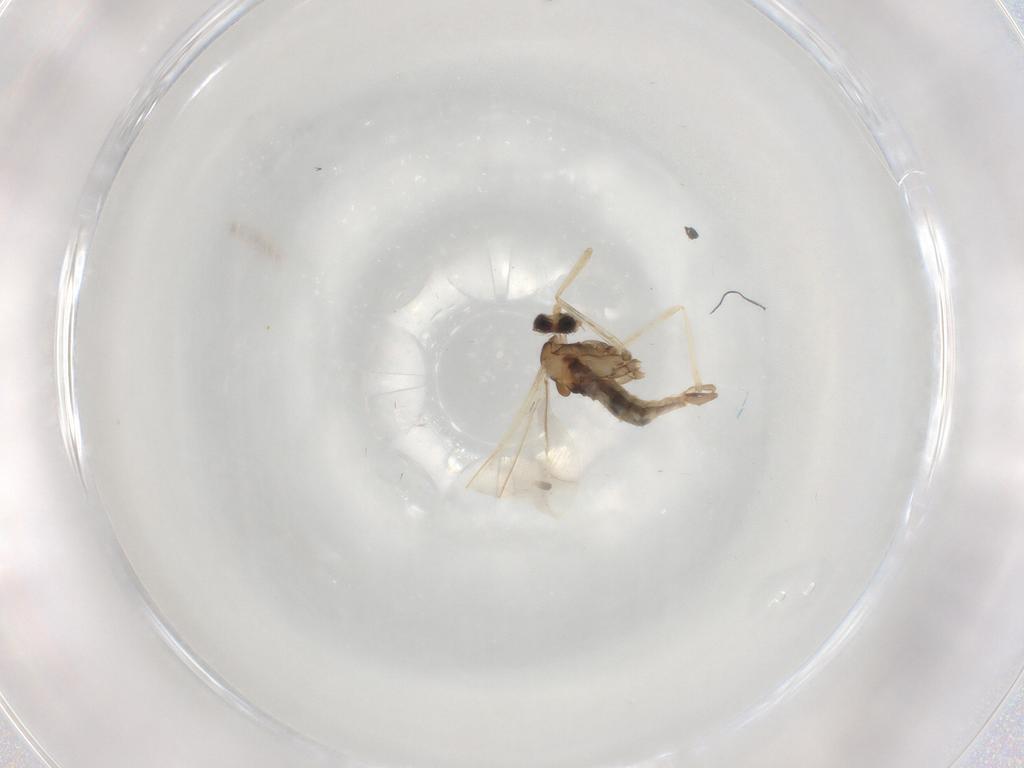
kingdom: Animalia
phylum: Arthropoda
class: Insecta
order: Diptera
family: Cecidomyiidae
